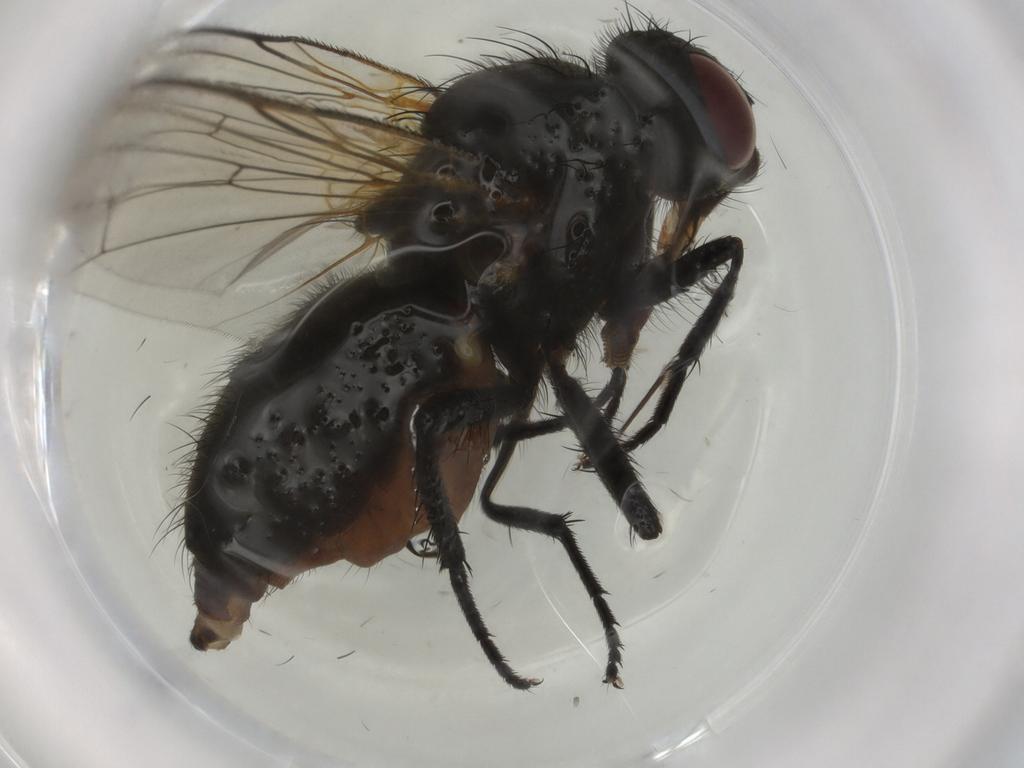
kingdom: Animalia
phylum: Arthropoda
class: Insecta
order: Diptera
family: Anthomyiidae
